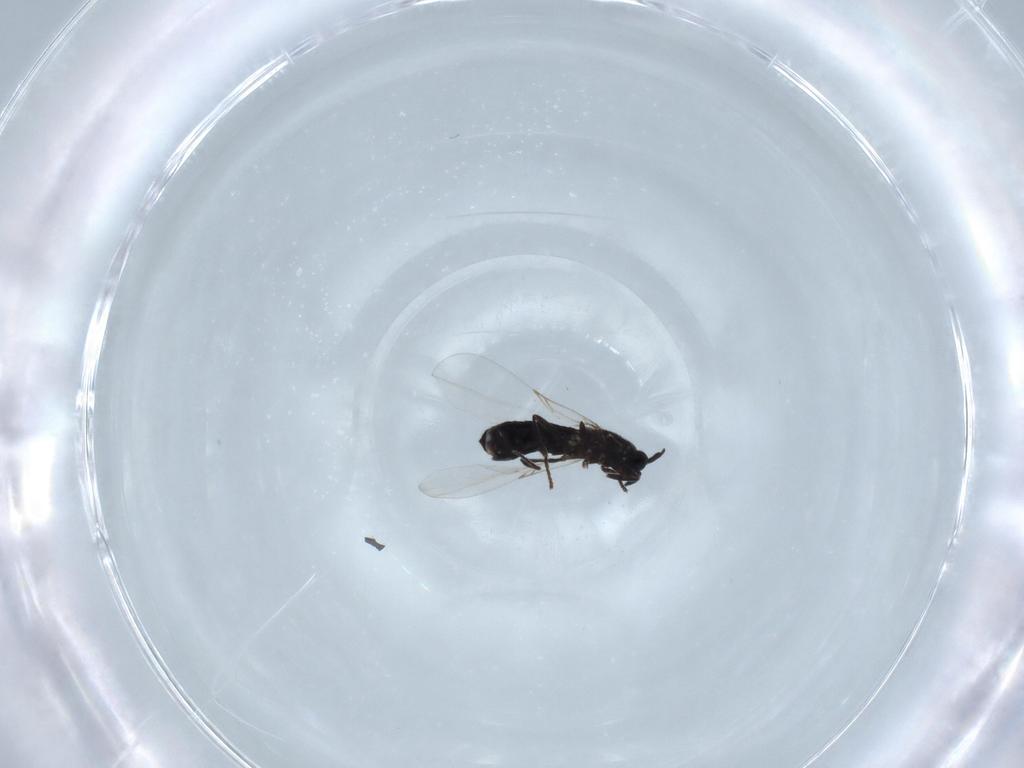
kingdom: Animalia
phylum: Arthropoda
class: Insecta
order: Diptera
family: Scatopsidae
